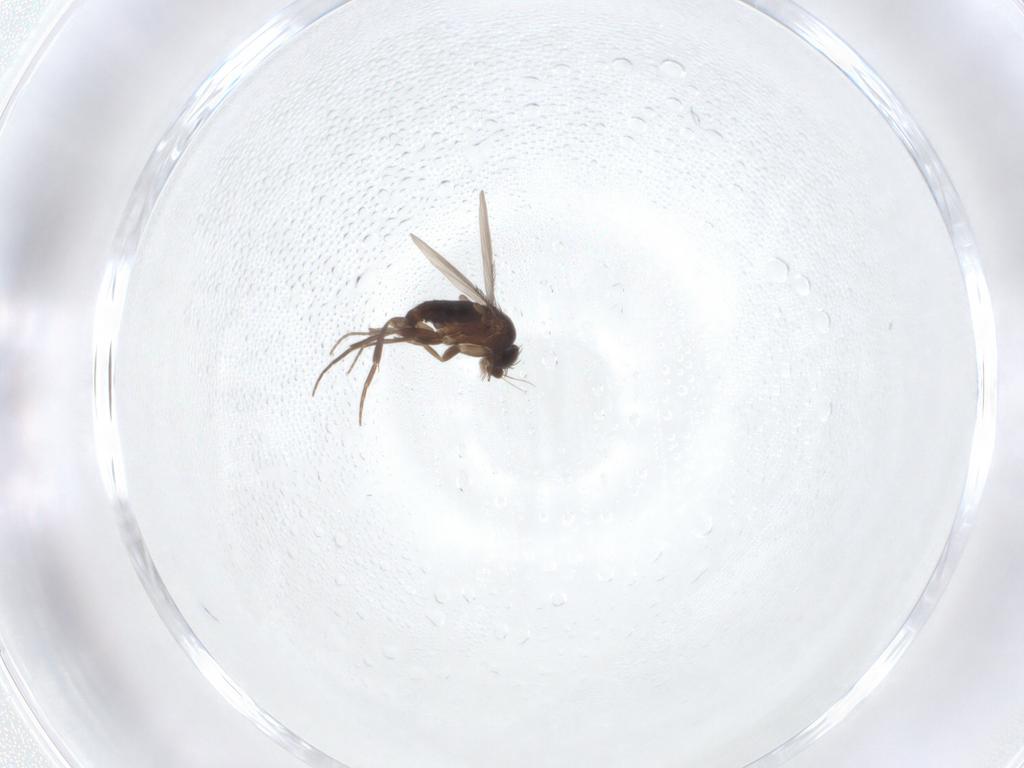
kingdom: Animalia
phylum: Arthropoda
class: Insecta
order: Diptera
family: Phoridae
